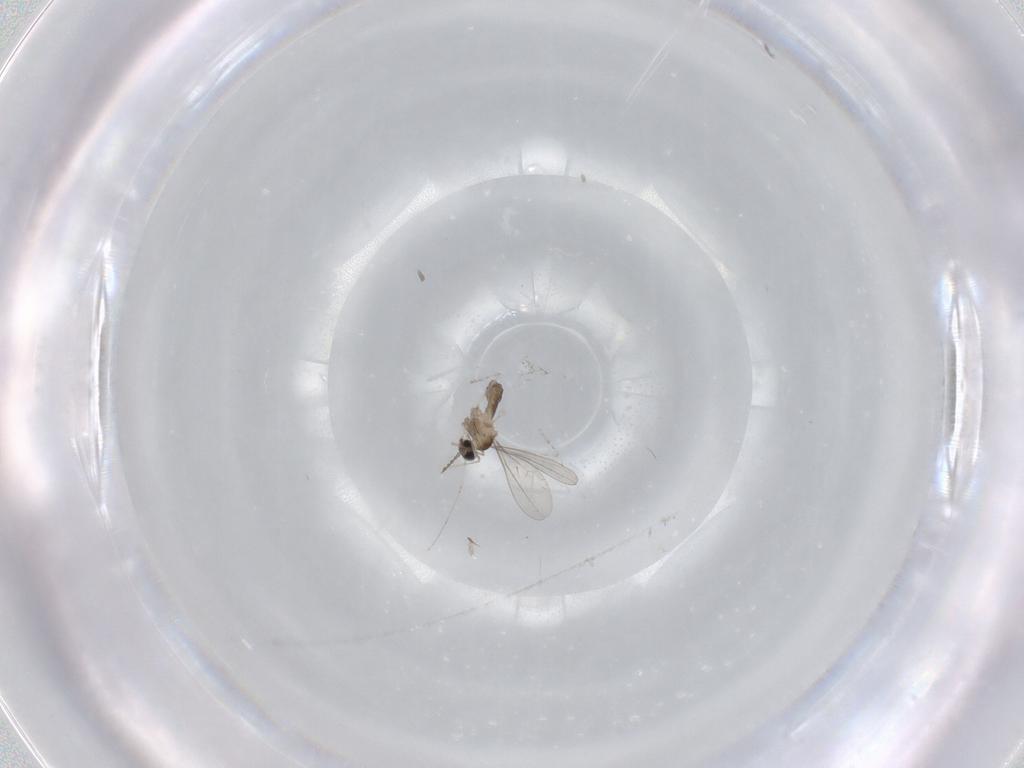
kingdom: Animalia
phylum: Arthropoda
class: Insecta
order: Diptera
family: Cecidomyiidae
